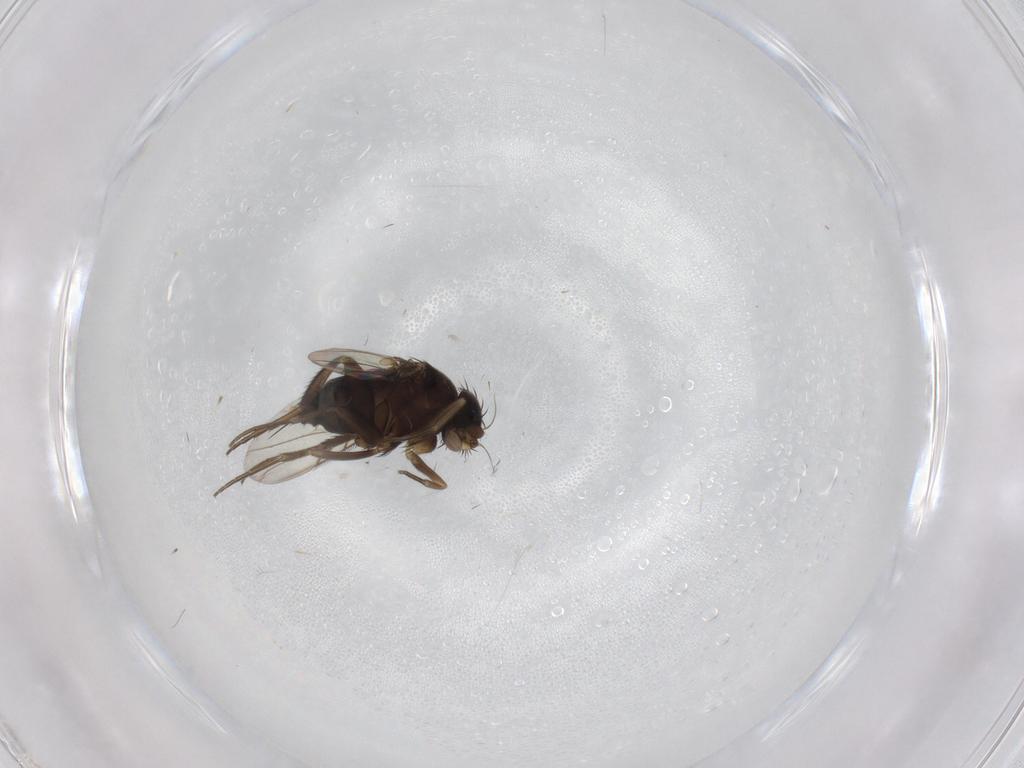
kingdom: Animalia
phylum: Arthropoda
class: Insecta
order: Diptera
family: Phoridae
